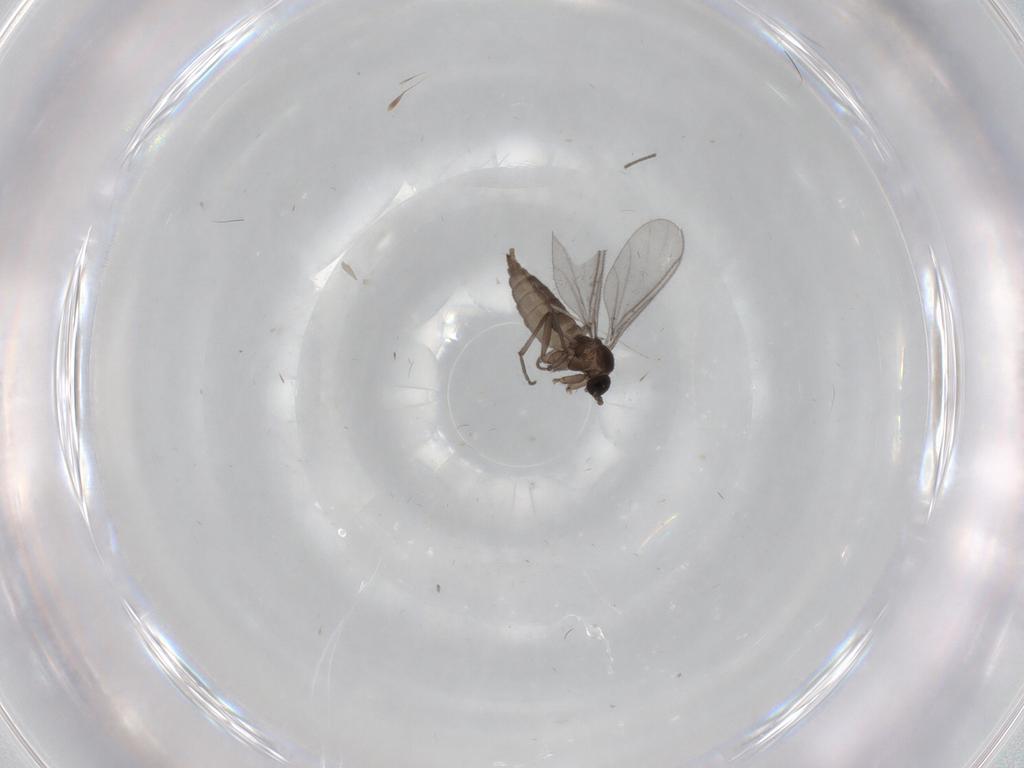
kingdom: Animalia
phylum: Arthropoda
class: Insecta
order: Diptera
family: Sciaridae
